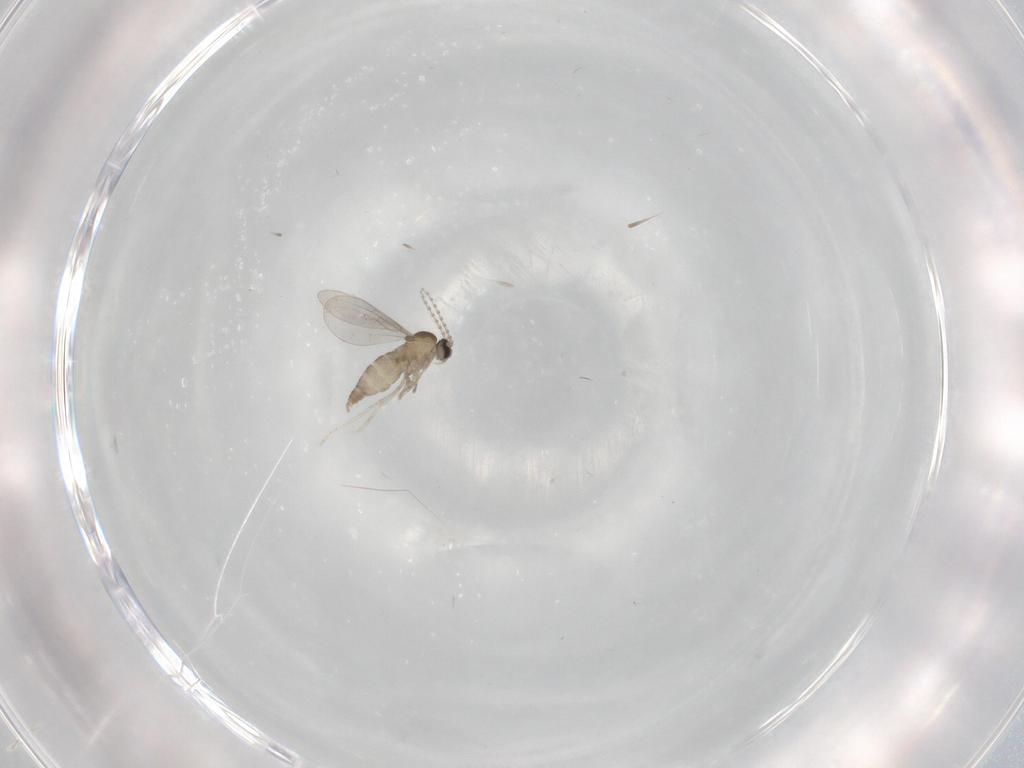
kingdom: Animalia
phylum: Arthropoda
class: Insecta
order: Diptera
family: Cecidomyiidae
